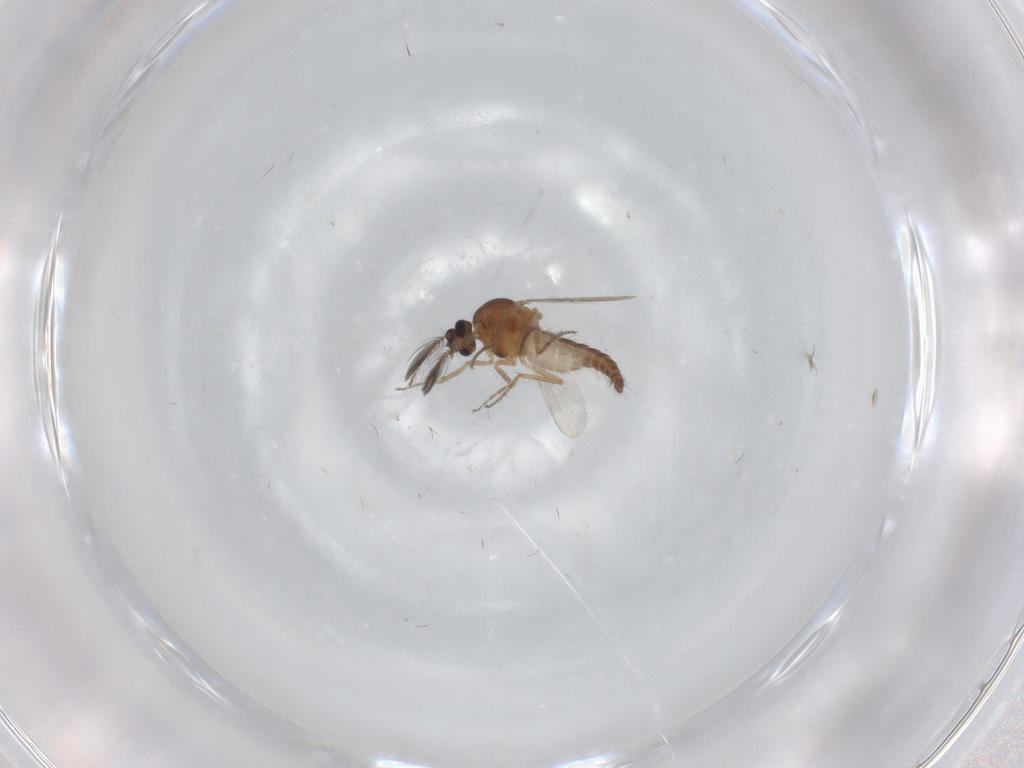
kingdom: Animalia
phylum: Arthropoda
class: Insecta
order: Diptera
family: Ceratopogonidae
